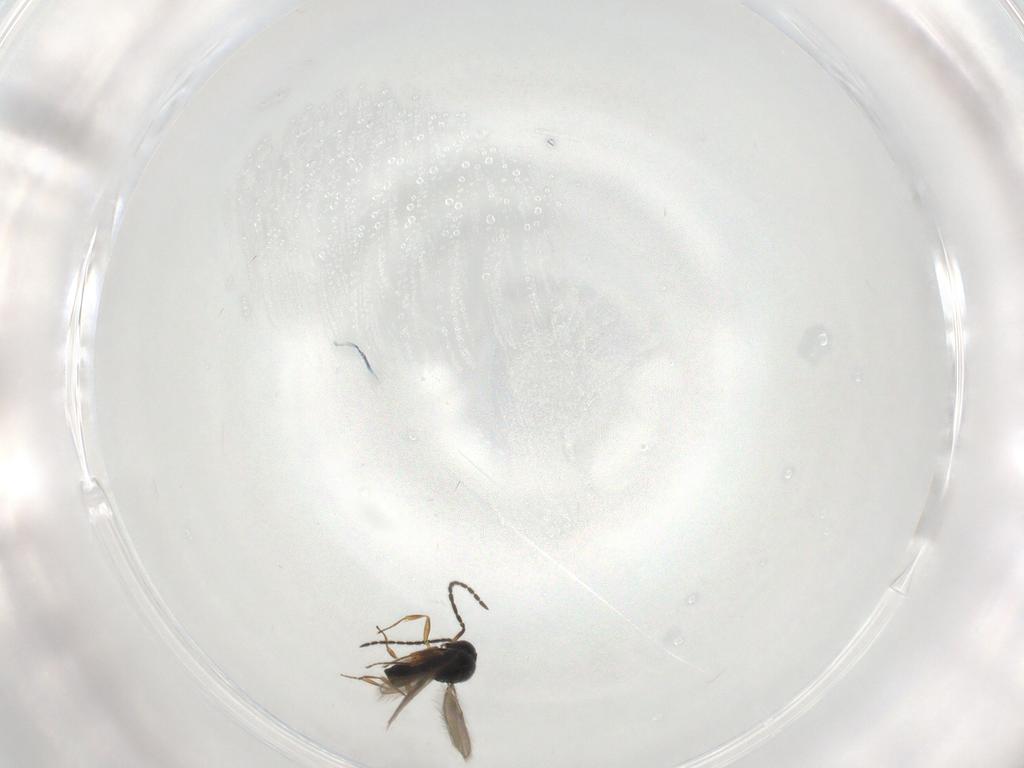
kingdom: Animalia
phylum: Arthropoda
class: Insecta
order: Hymenoptera
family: Scelionidae
